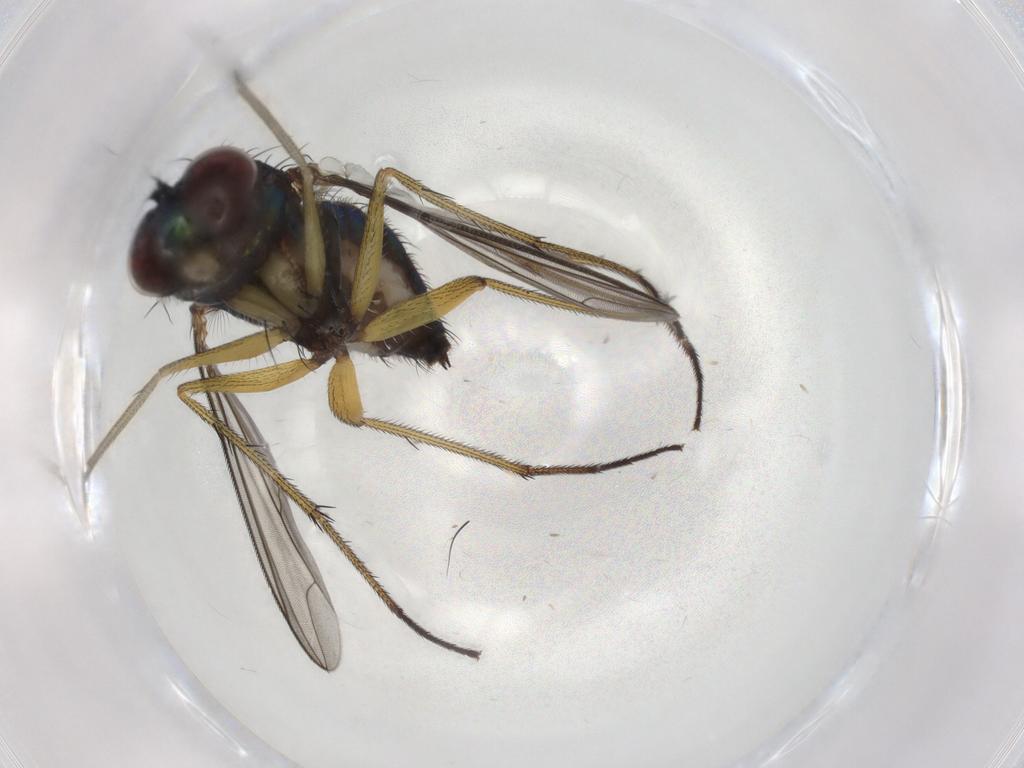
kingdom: Animalia
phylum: Arthropoda
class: Insecta
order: Diptera
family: Dolichopodidae
